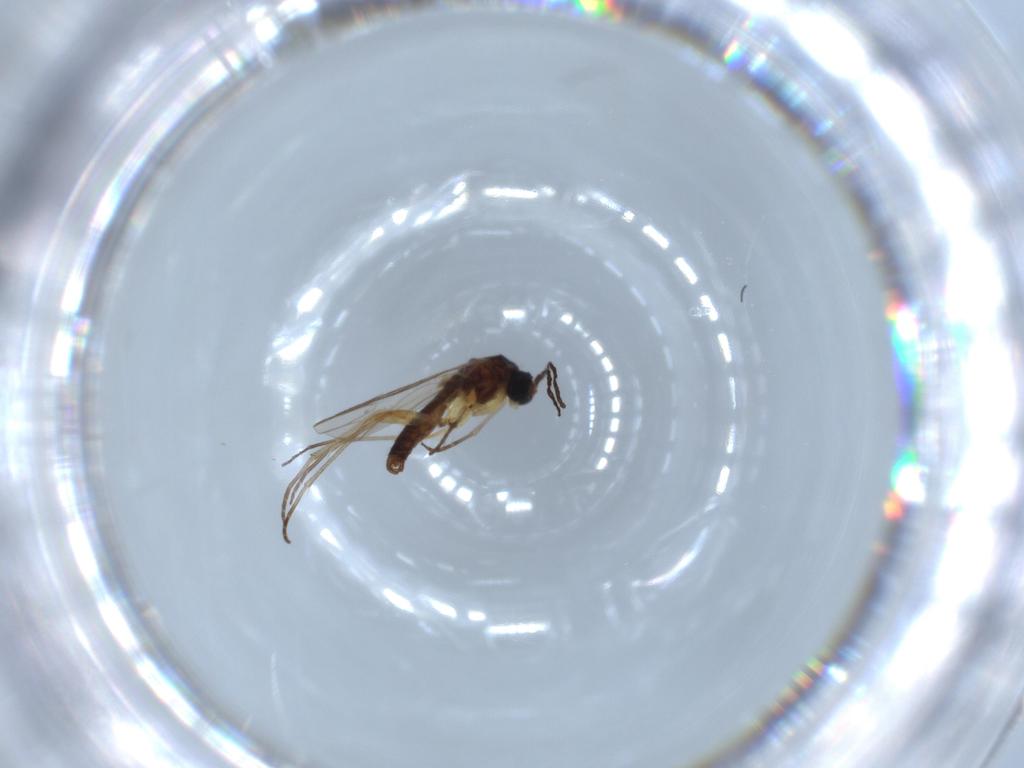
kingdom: Animalia
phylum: Arthropoda
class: Insecta
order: Diptera
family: Sciaridae
